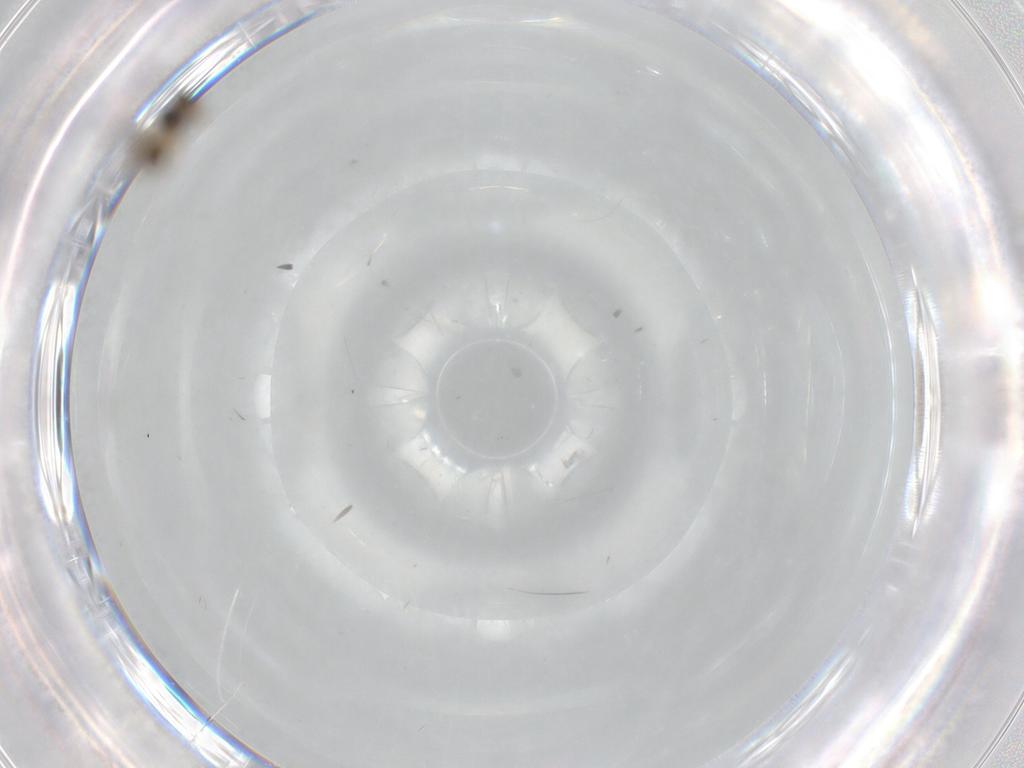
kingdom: Animalia
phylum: Arthropoda
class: Insecta
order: Hymenoptera
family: Platygastridae
